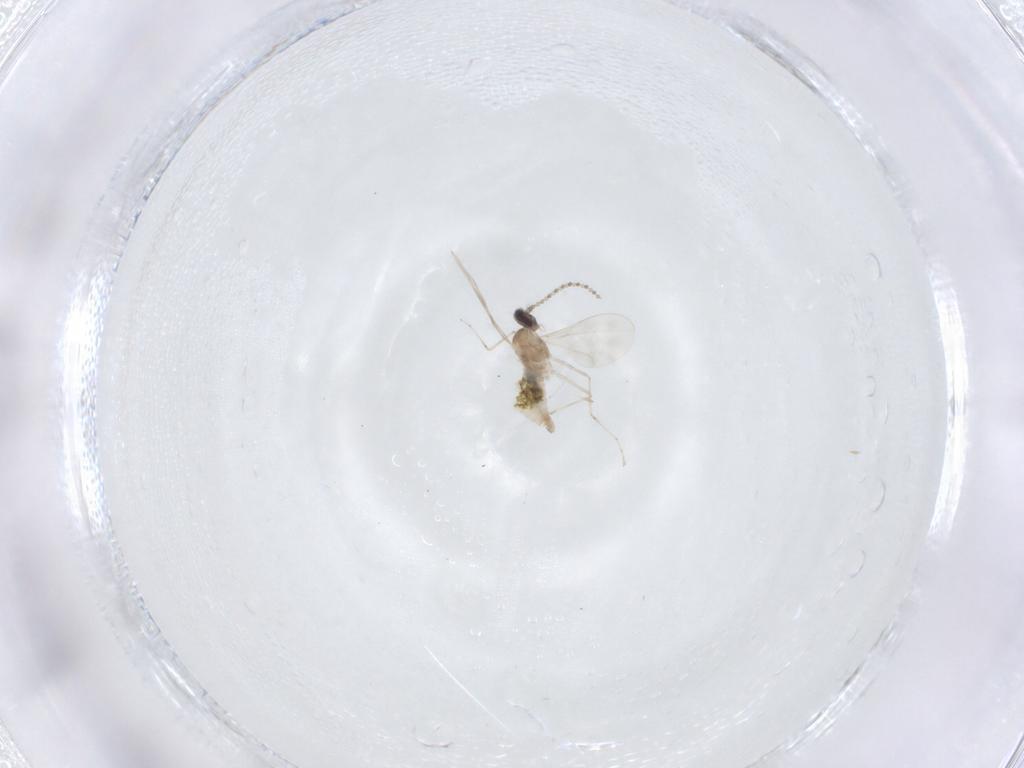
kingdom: Animalia
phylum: Arthropoda
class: Insecta
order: Diptera
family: Cecidomyiidae
